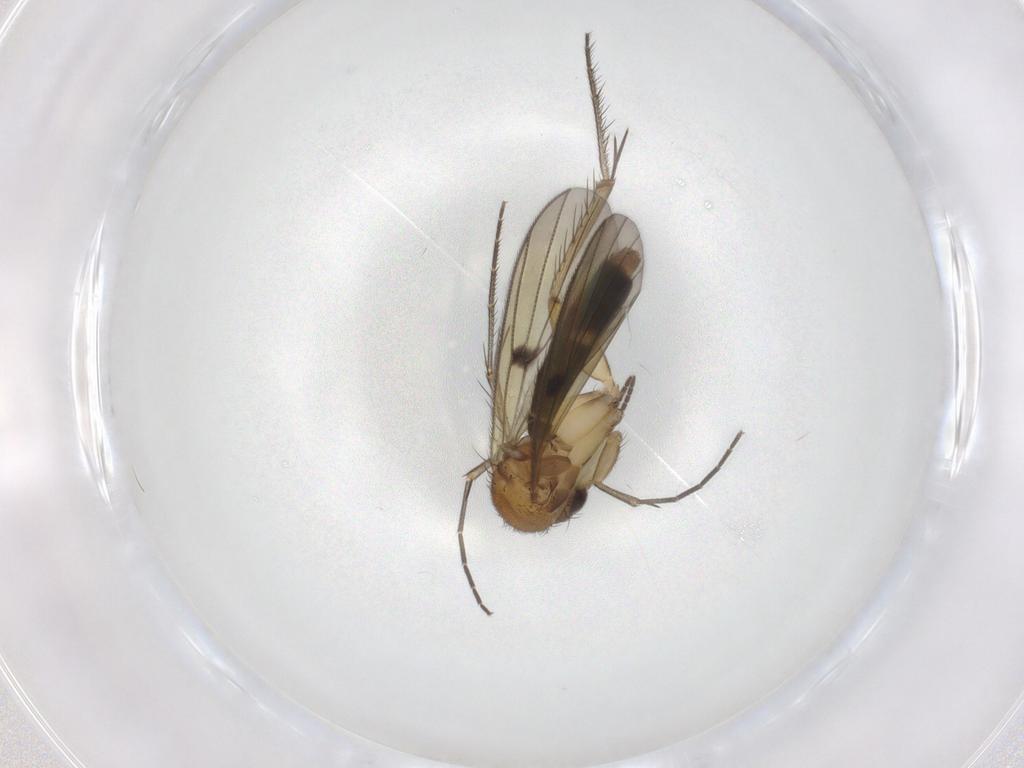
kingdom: Animalia
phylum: Arthropoda
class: Insecta
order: Diptera
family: Mycetophilidae
